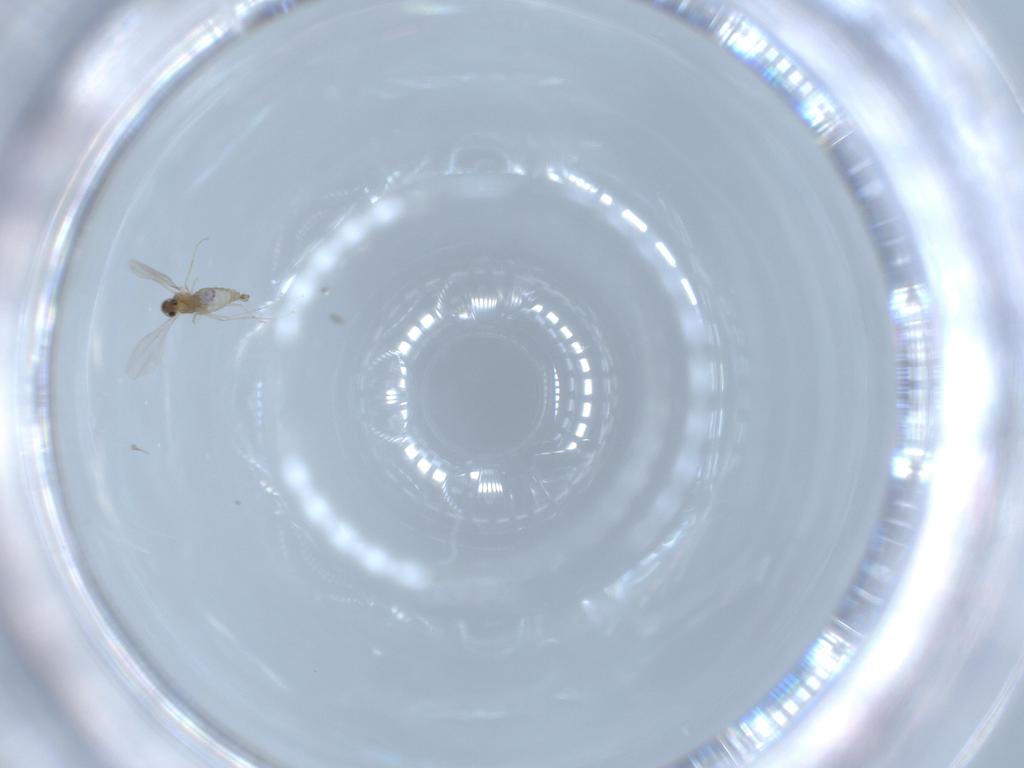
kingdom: Animalia
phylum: Arthropoda
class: Insecta
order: Diptera
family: Cecidomyiidae
